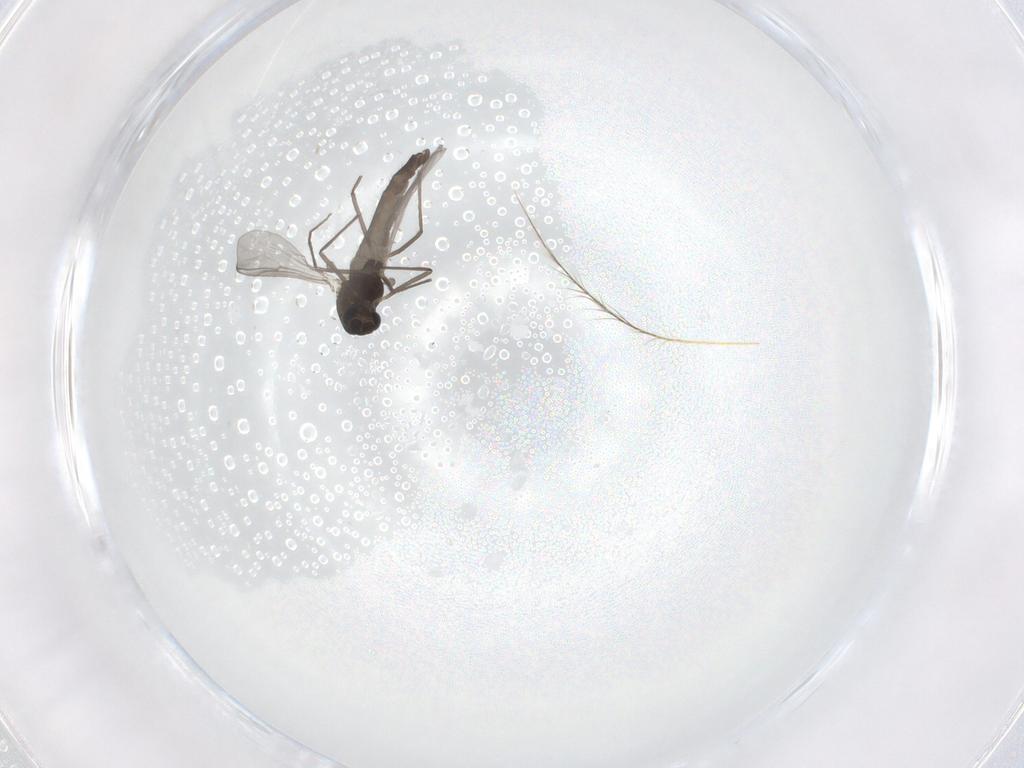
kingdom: Animalia
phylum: Arthropoda
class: Insecta
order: Diptera
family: Chironomidae
